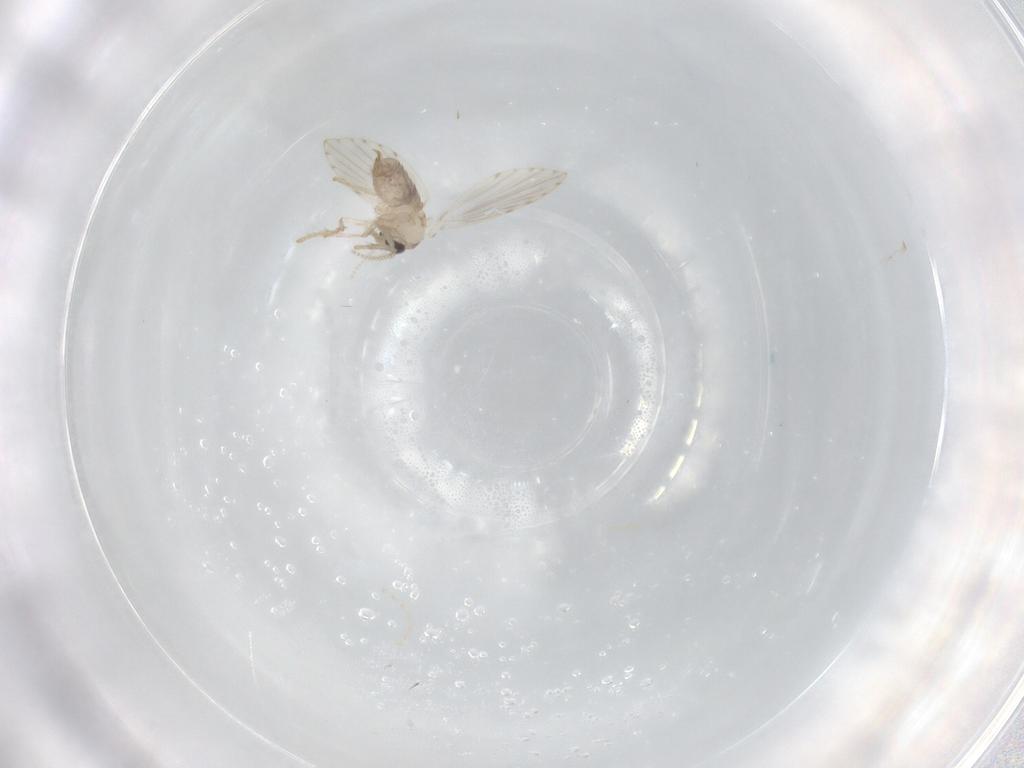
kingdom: Animalia
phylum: Arthropoda
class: Insecta
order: Diptera
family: Psychodidae
